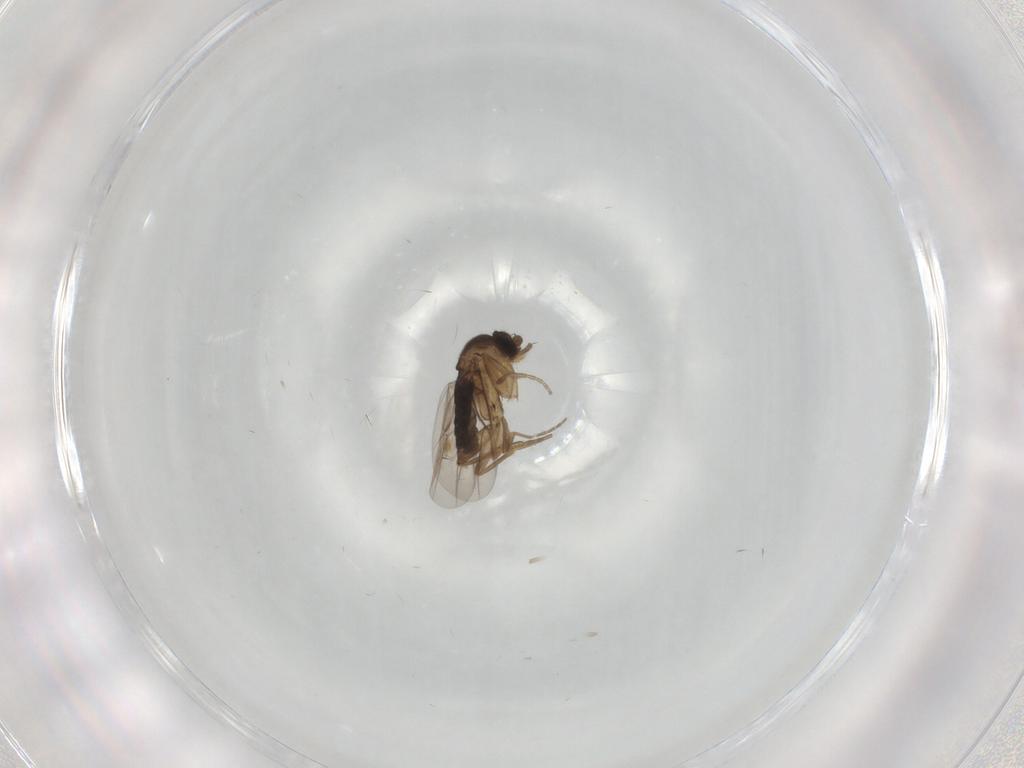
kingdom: Animalia
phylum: Arthropoda
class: Insecta
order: Diptera
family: Phoridae
